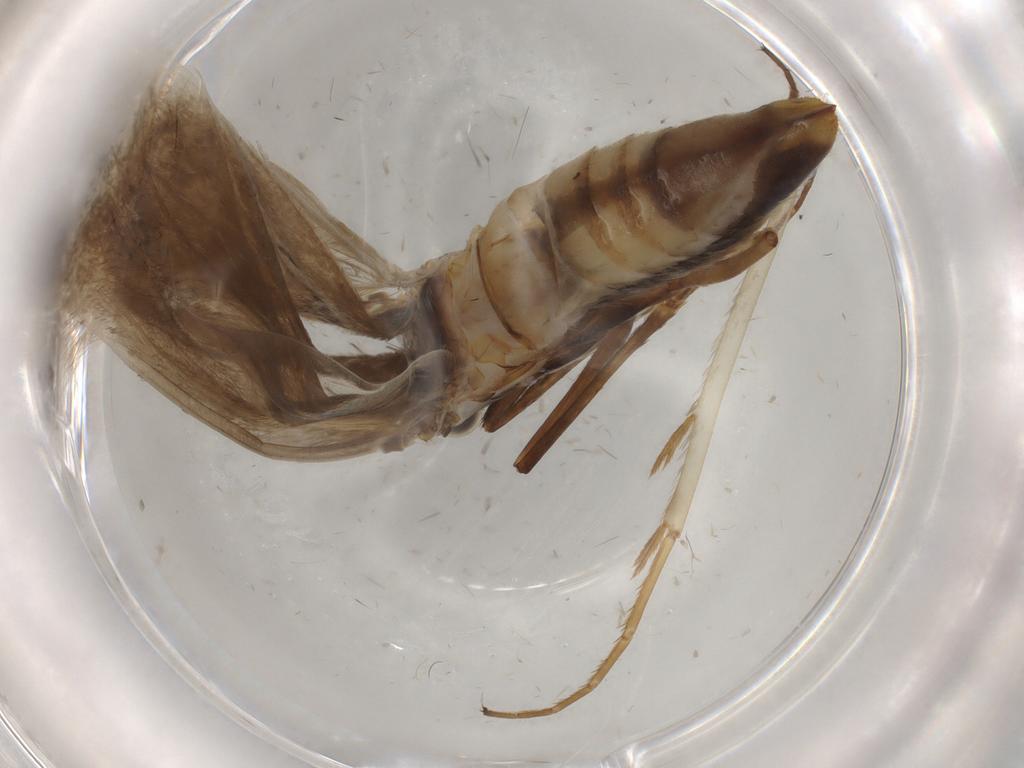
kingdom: Animalia
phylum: Arthropoda
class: Insecta
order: Lepidoptera
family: Adelidae
